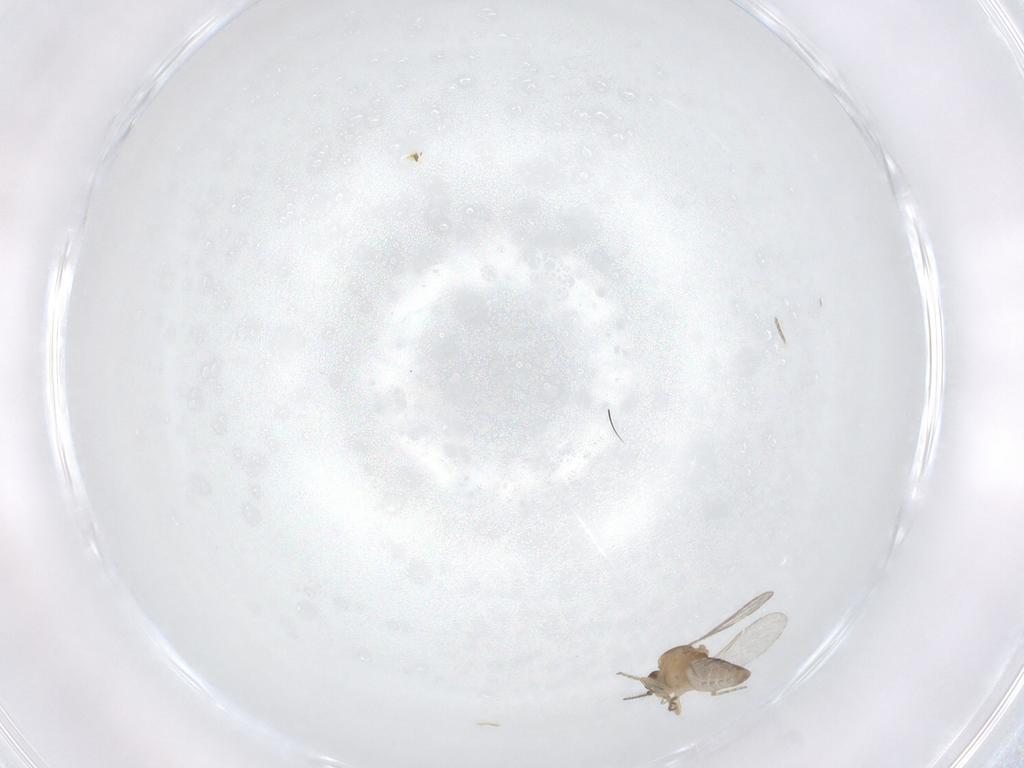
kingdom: Animalia
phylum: Arthropoda
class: Insecta
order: Diptera
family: Ceratopogonidae
